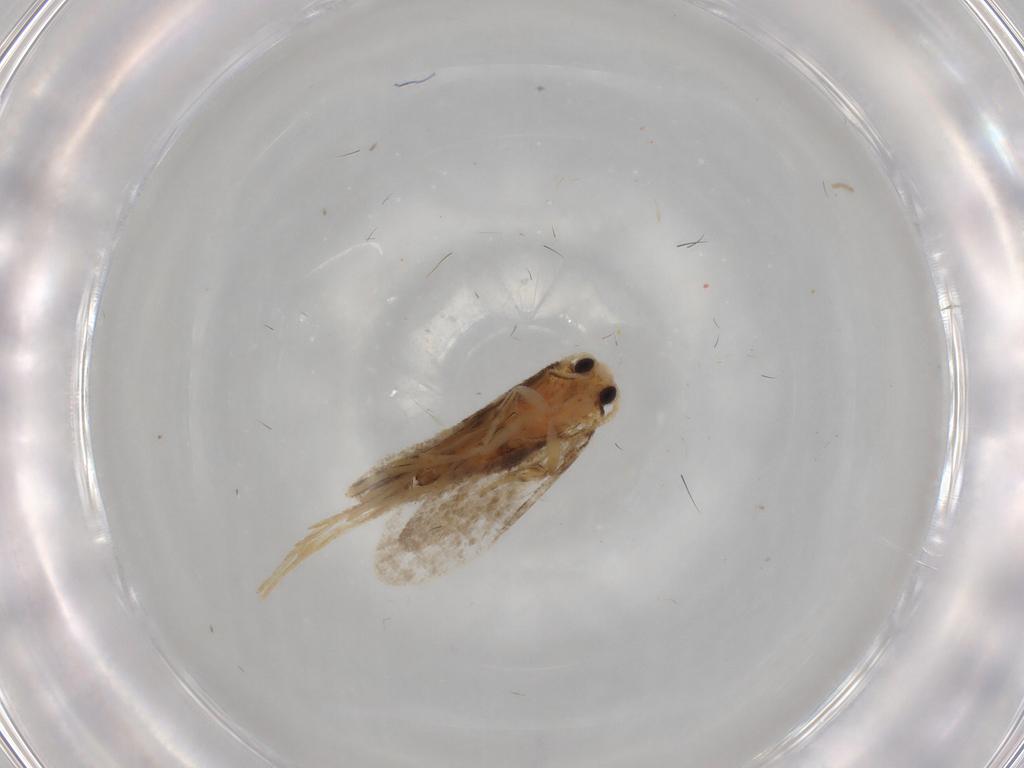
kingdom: Animalia
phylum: Arthropoda
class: Insecta
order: Lepidoptera
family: Psychidae
